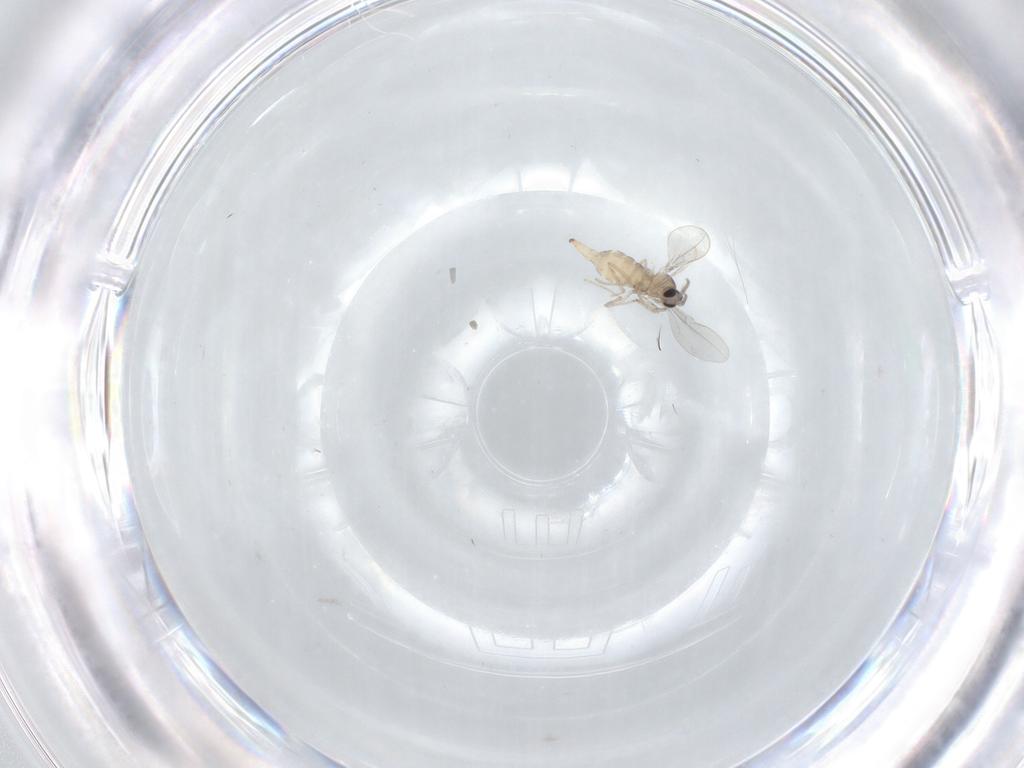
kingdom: Animalia
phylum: Arthropoda
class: Insecta
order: Diptera
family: Cecidomyiidae
